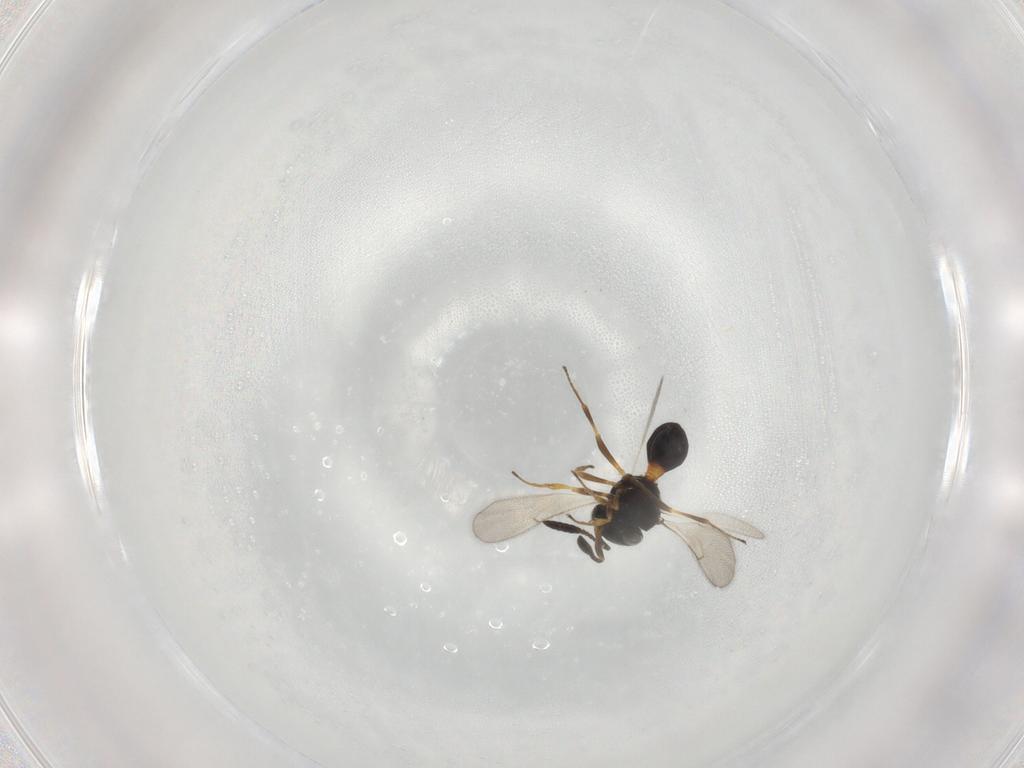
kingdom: Animalia
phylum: Arthropoda
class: Insecta
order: Hymenoptera
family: Scelionidae
